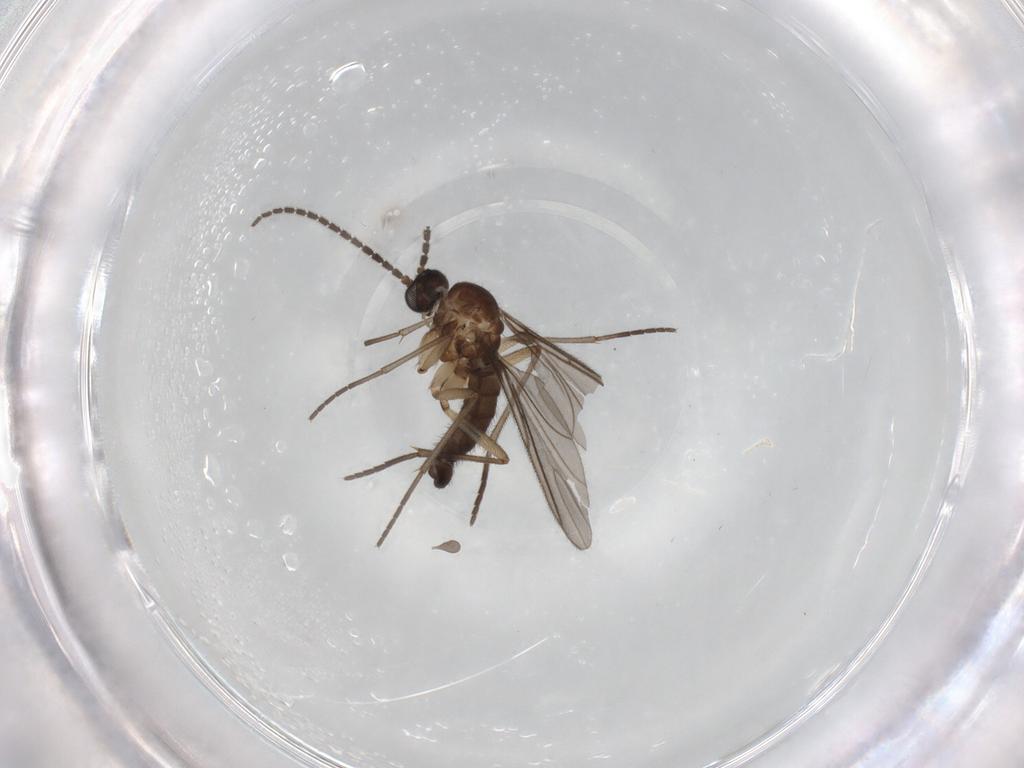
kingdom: Animalia
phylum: Arthropoda
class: Insecta
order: Diptera
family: Sciaridae
